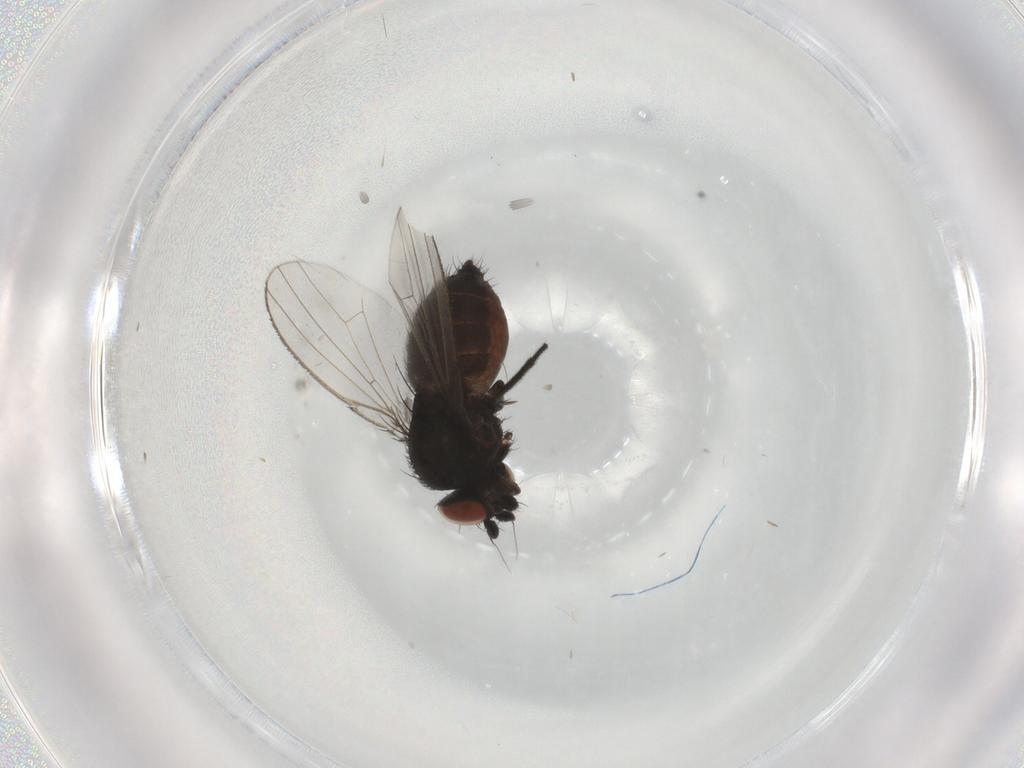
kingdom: Animalia
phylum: Arthropoda
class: Insecta
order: Diptera
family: Milichiidae
